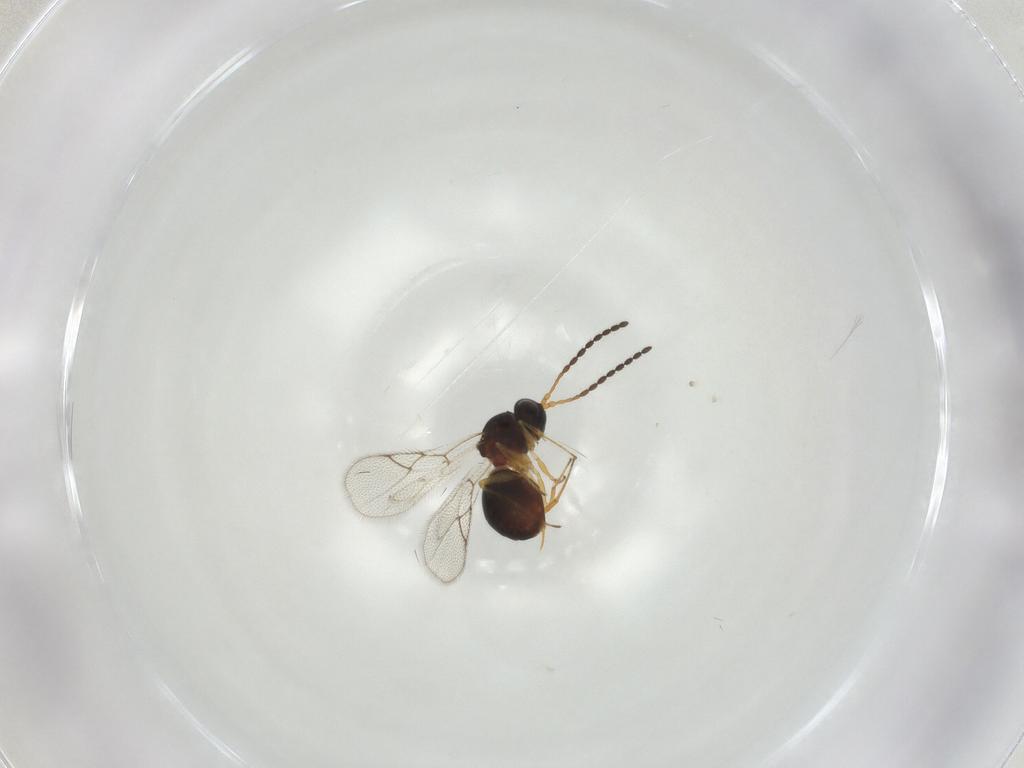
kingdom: Animalia
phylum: Arthropoda
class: Insecta
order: Hymenoptera
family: Figitidae
